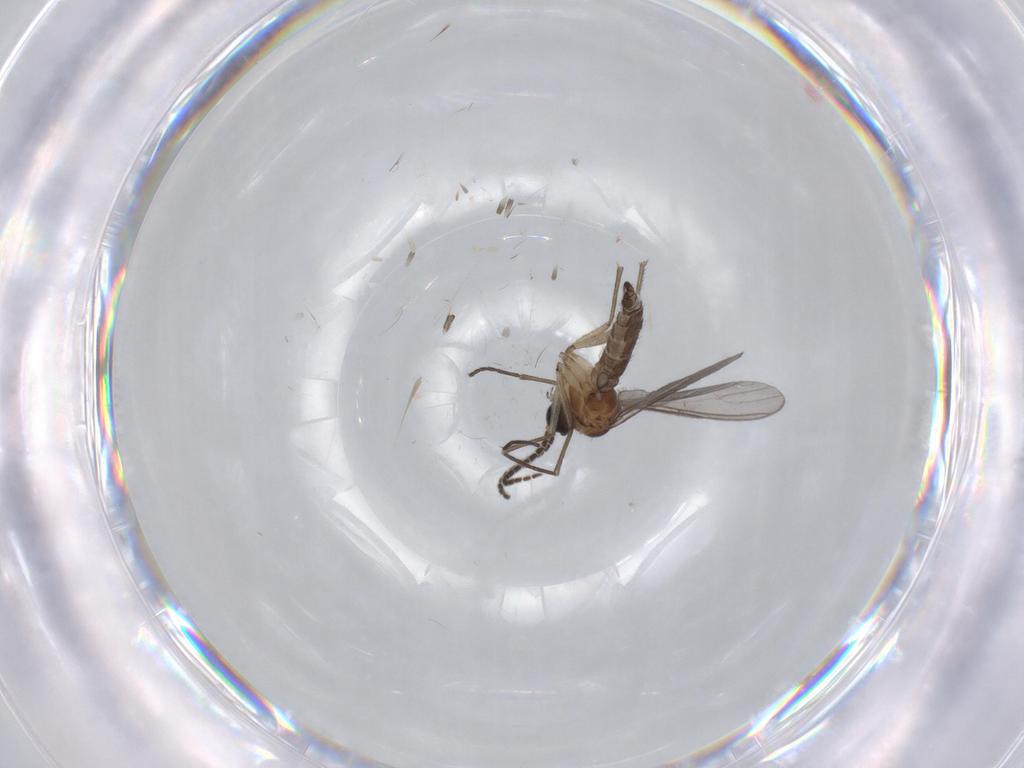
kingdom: Animalia
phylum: Arthropoda
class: Insecta
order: Diptera
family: Sciaridae
